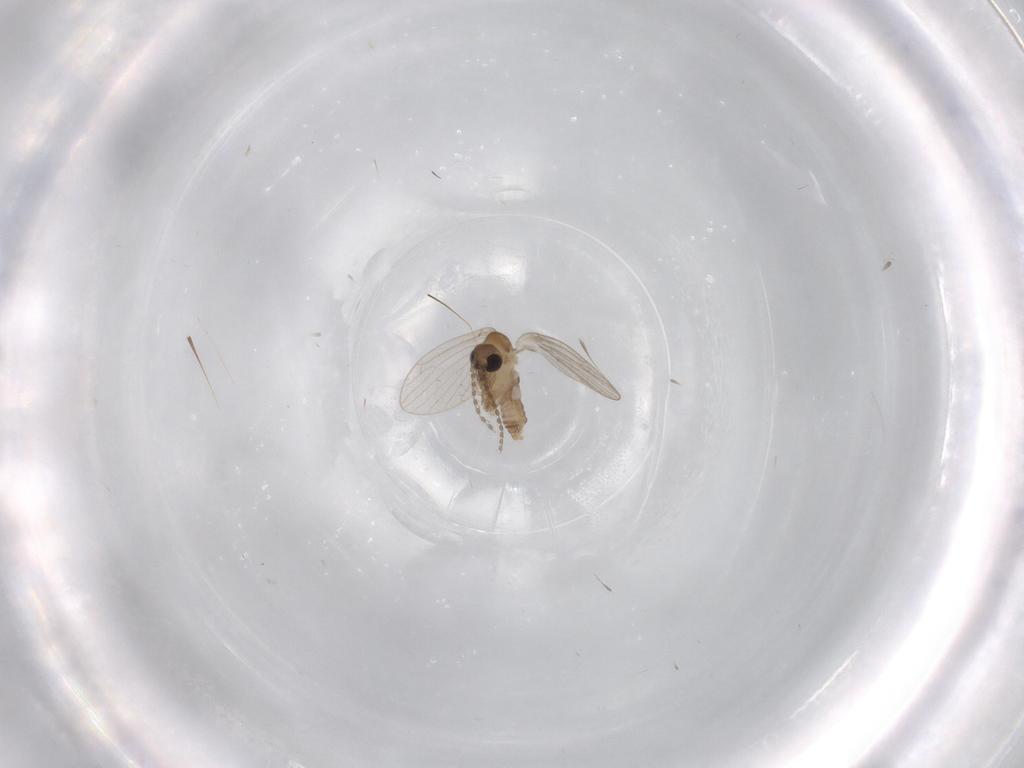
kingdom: Animalia
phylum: Arthropoda
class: Insecta
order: Diptera
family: Psychodidae
